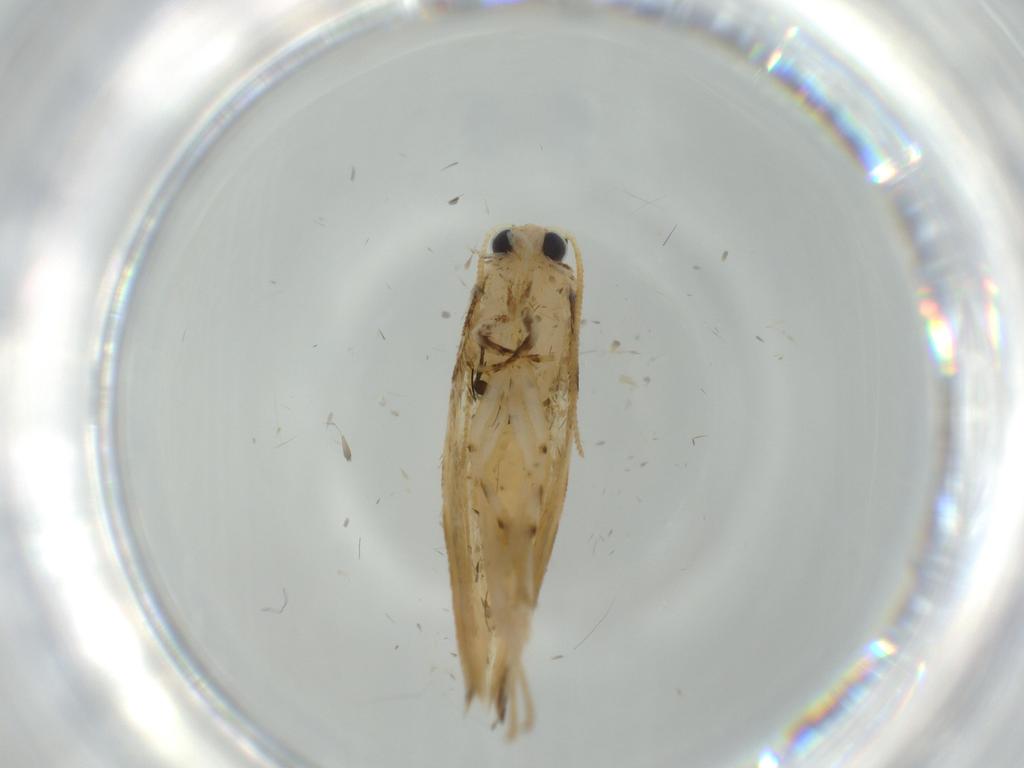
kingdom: Animalia
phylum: Arthropoda
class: Insecta
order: Lepidoptera
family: Tineidae
